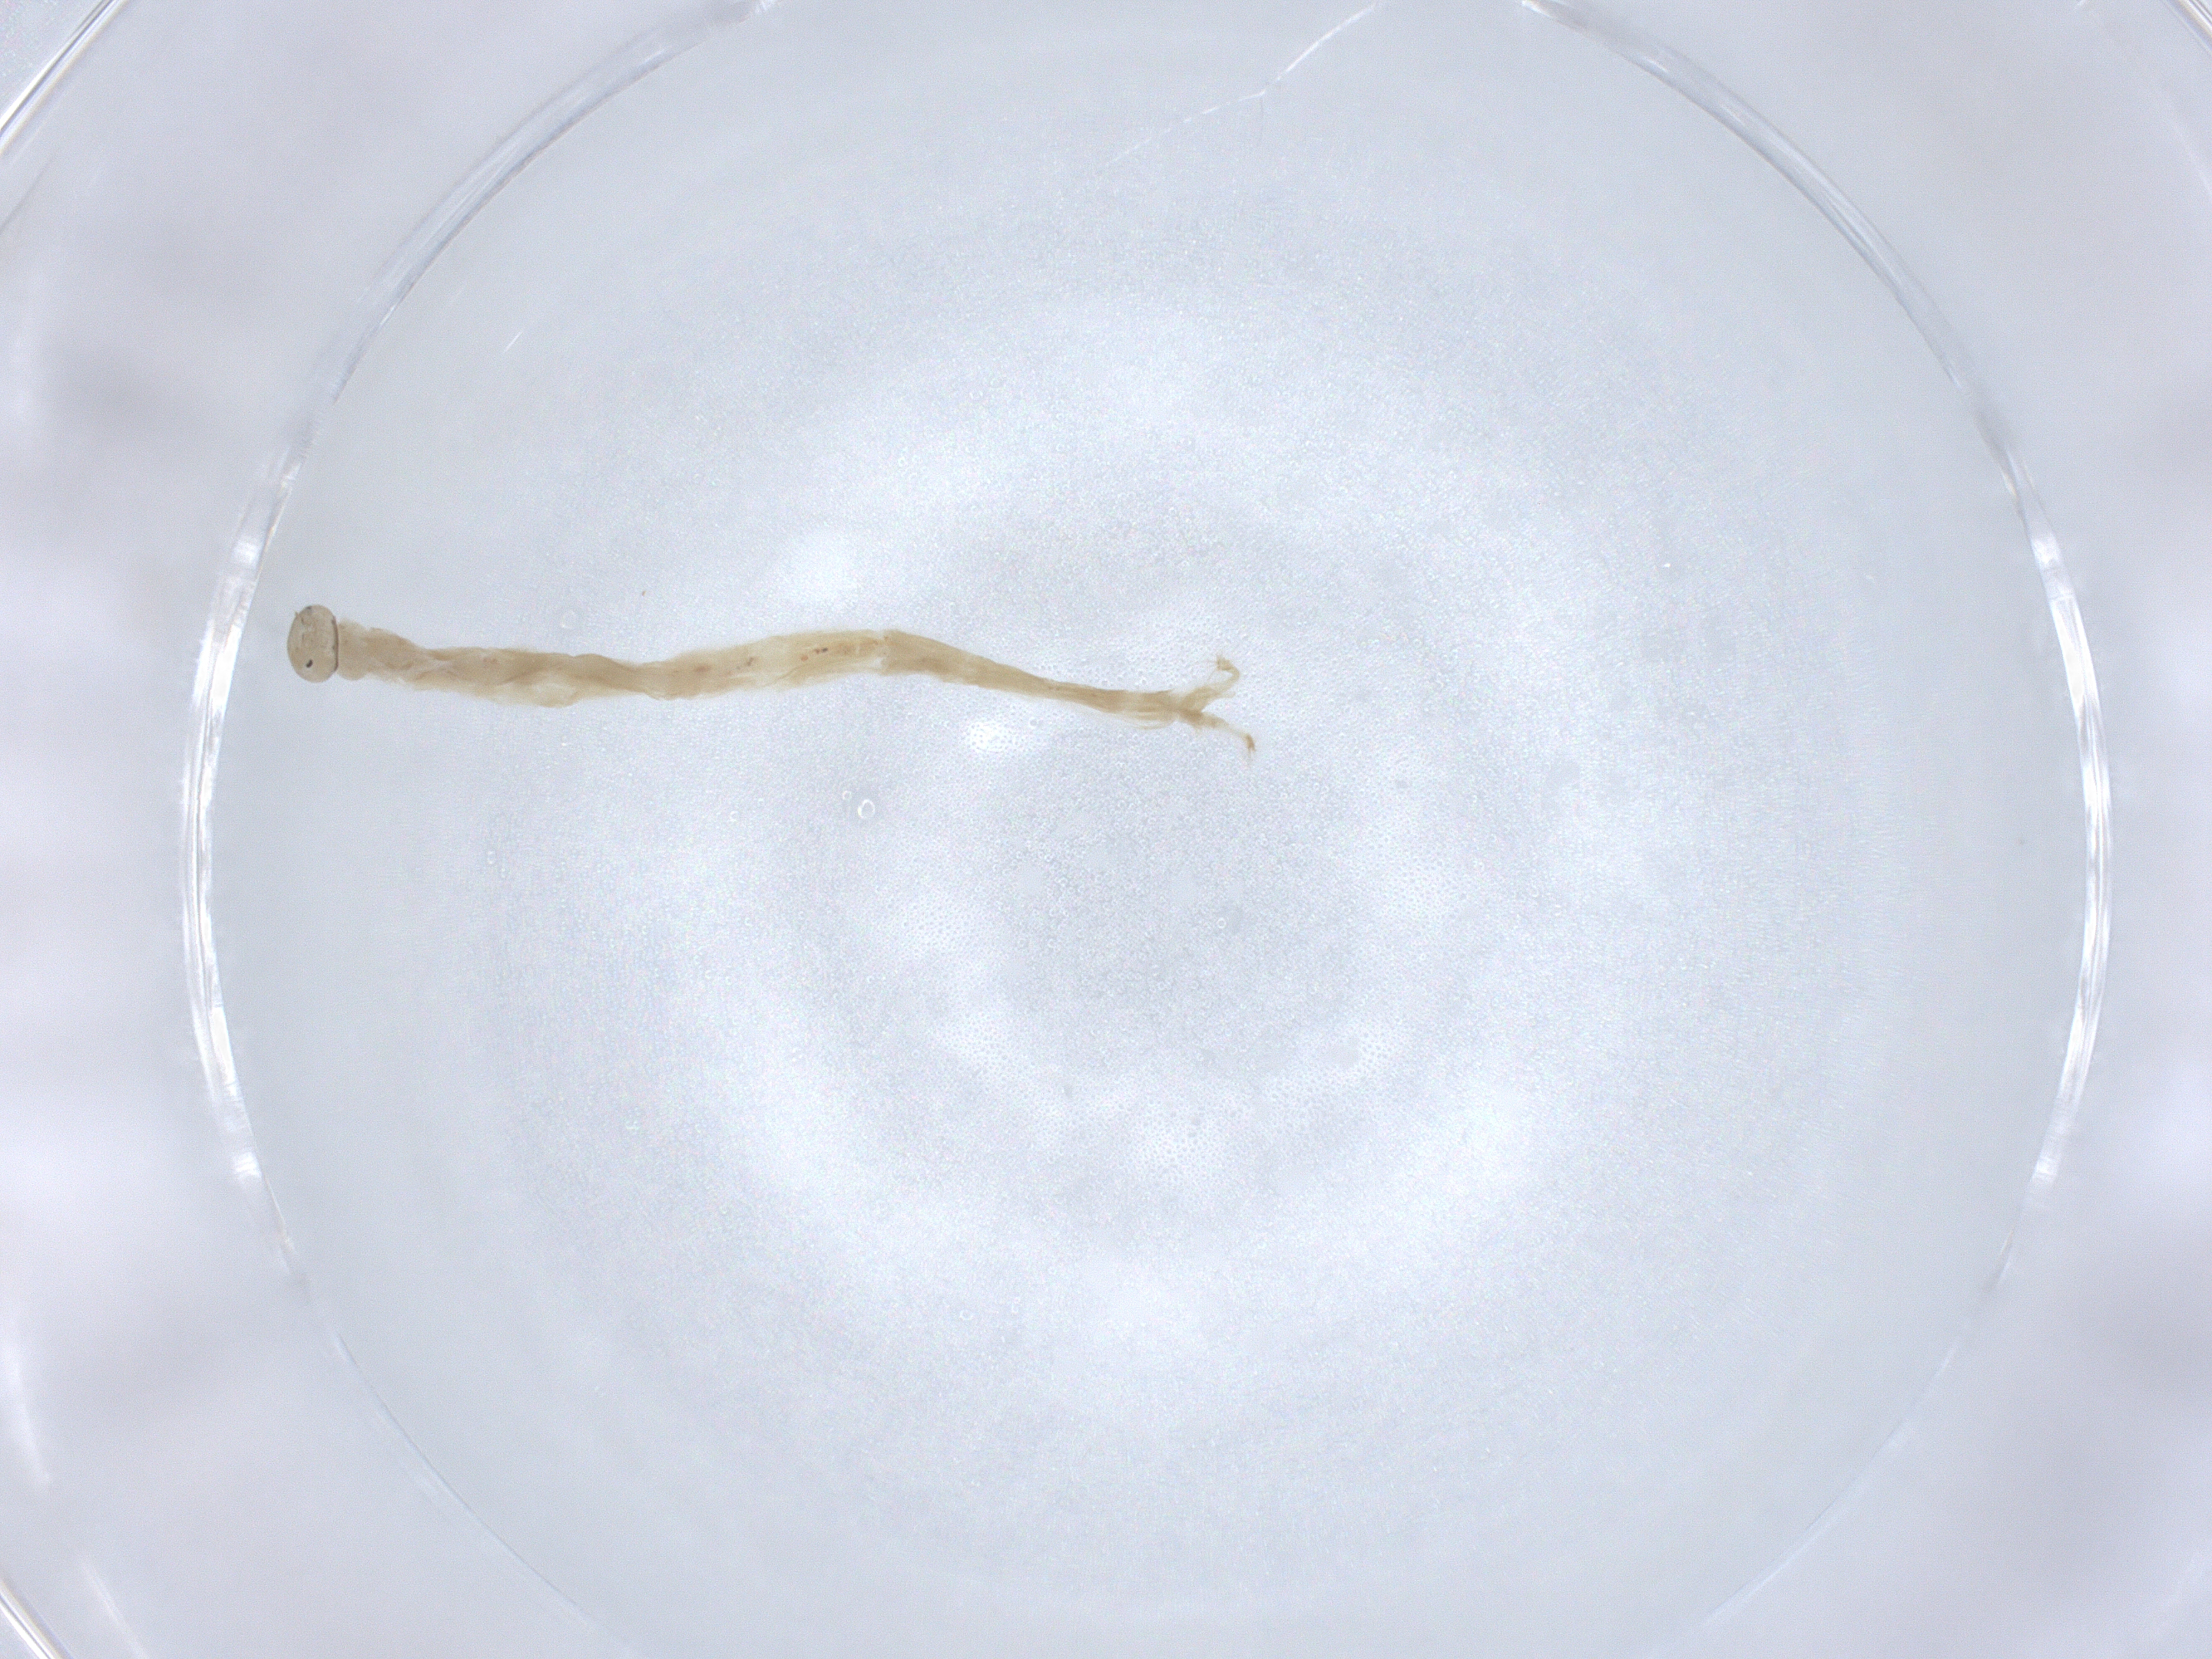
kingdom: Animalia
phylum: Arthropoda
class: Insecta
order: Diptera
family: Chironomidae
